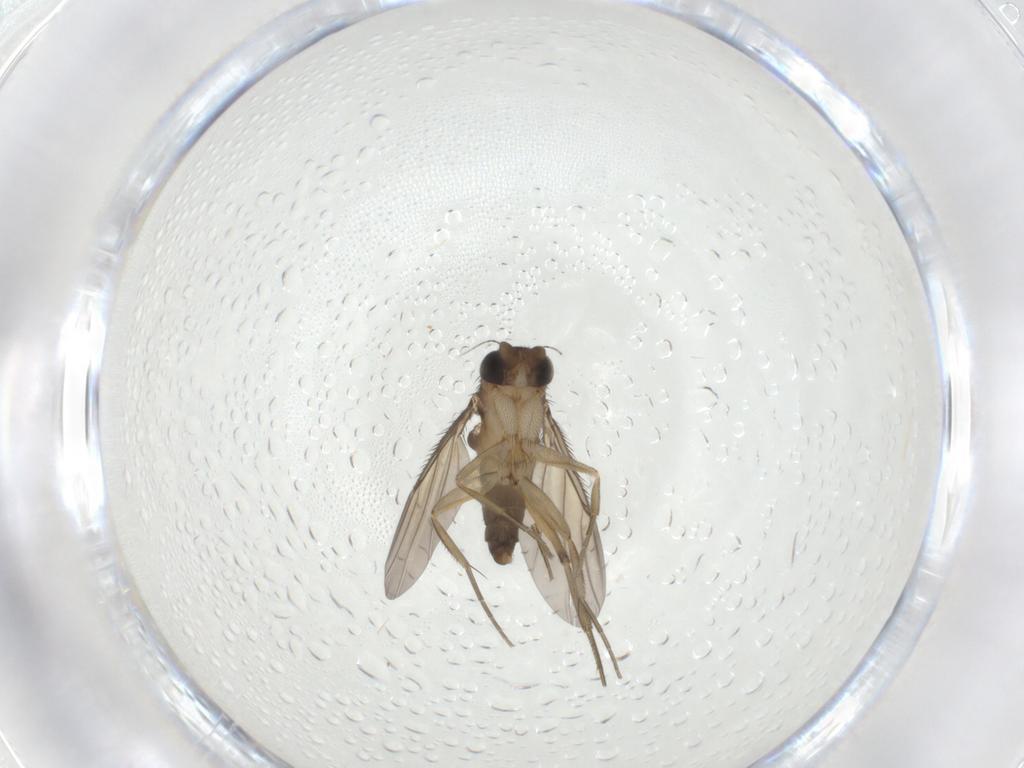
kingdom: Animalia
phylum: Arthropoda
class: Insecta
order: Diptera
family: Phoridae
